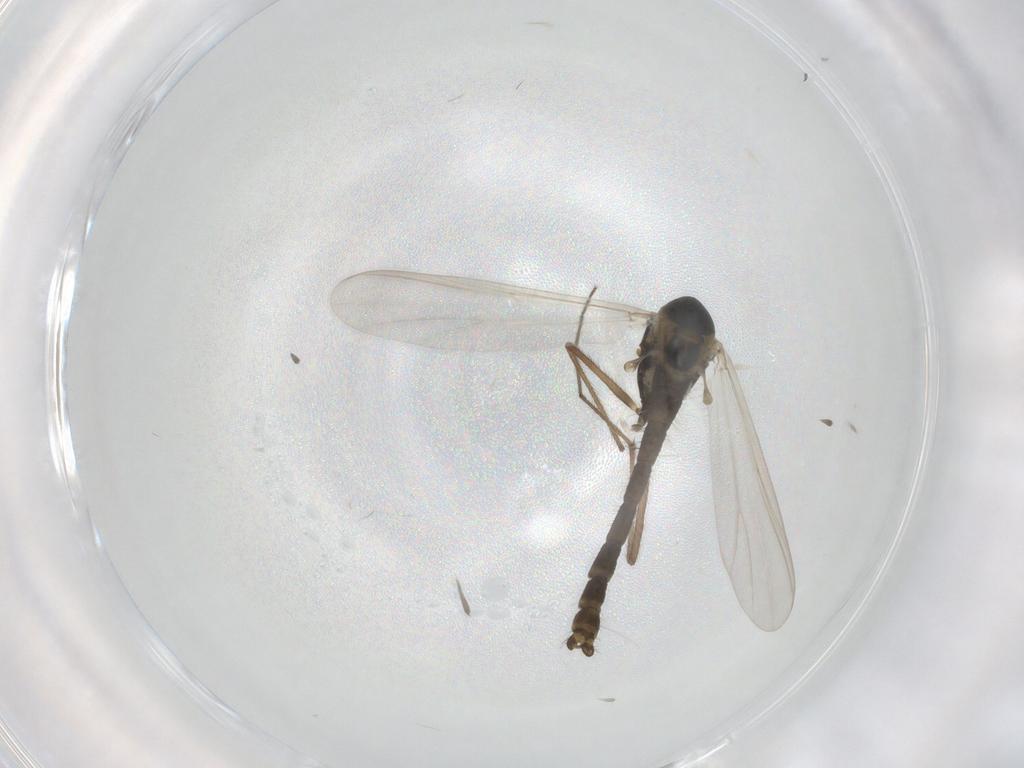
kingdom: Animalia
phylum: Arthropoda
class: Insecta
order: Diptera
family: Chironomidae
